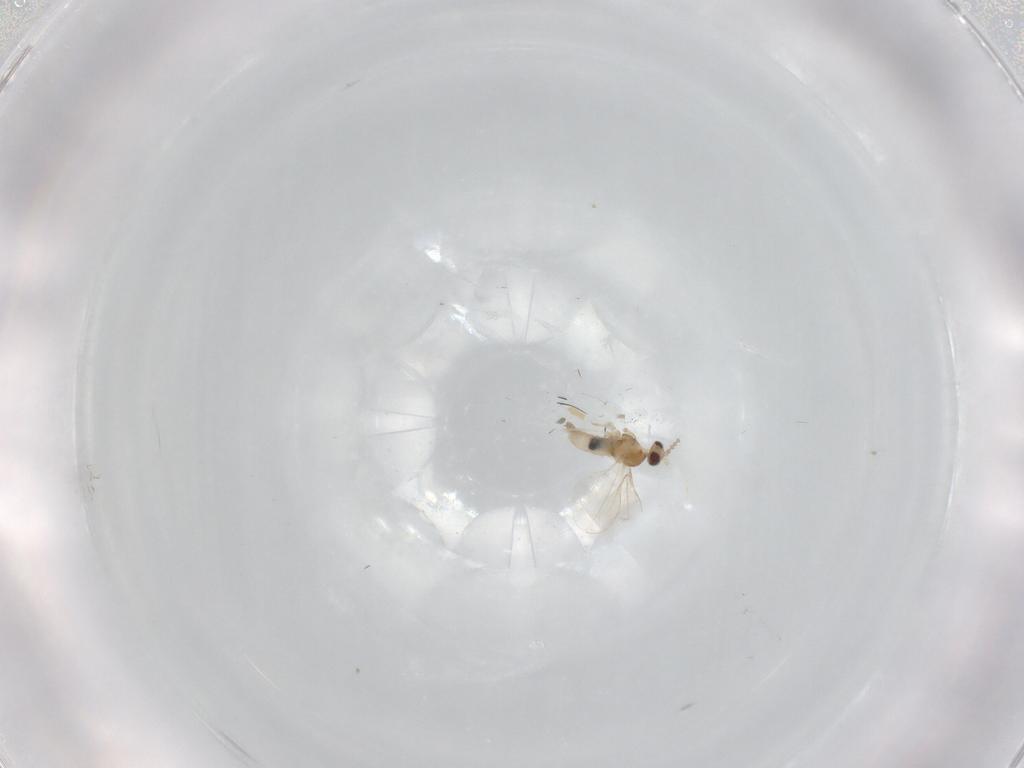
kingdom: Animalia
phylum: Arthropoda
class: Insecta
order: Diptera
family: Muscidae
